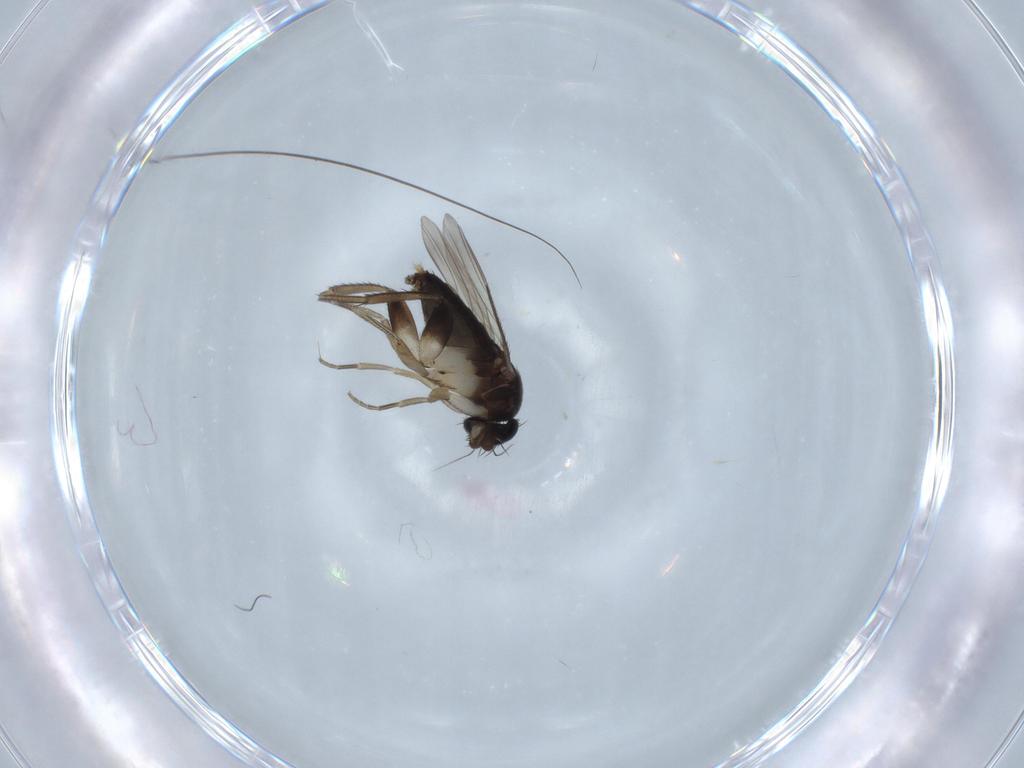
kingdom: Animalia
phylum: Arthropoda
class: Insecta
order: Diptera
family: Phoridae
